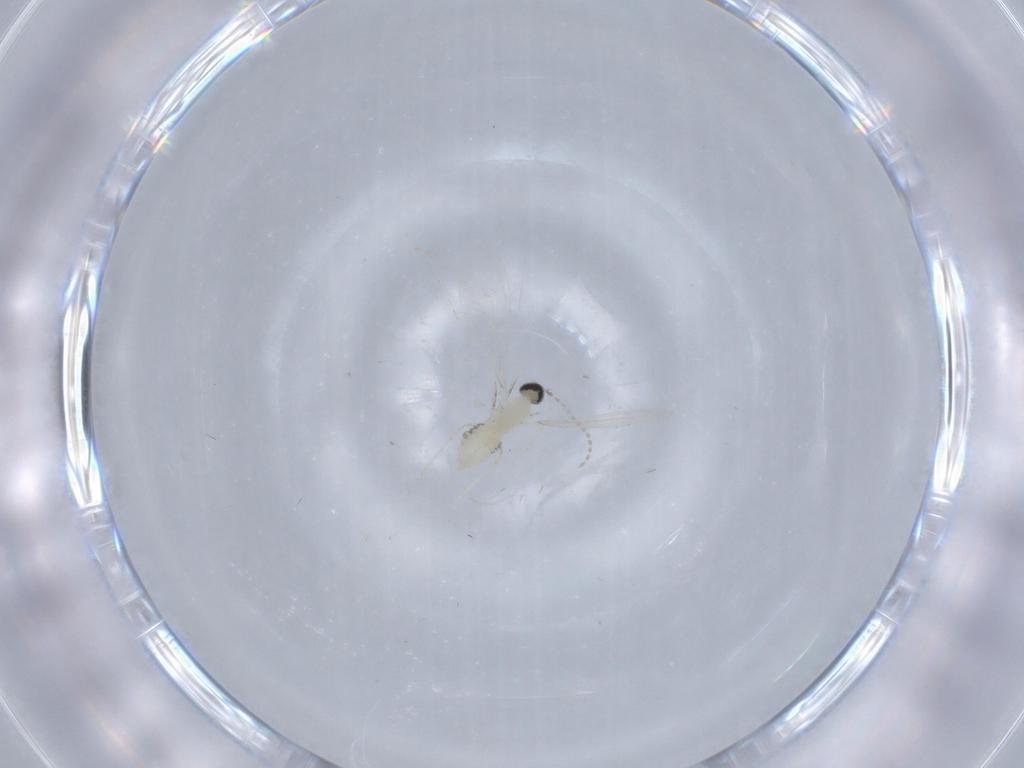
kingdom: Animalia
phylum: Arthropoda
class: Insecta
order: Diptera
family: Cecidomyiidae
